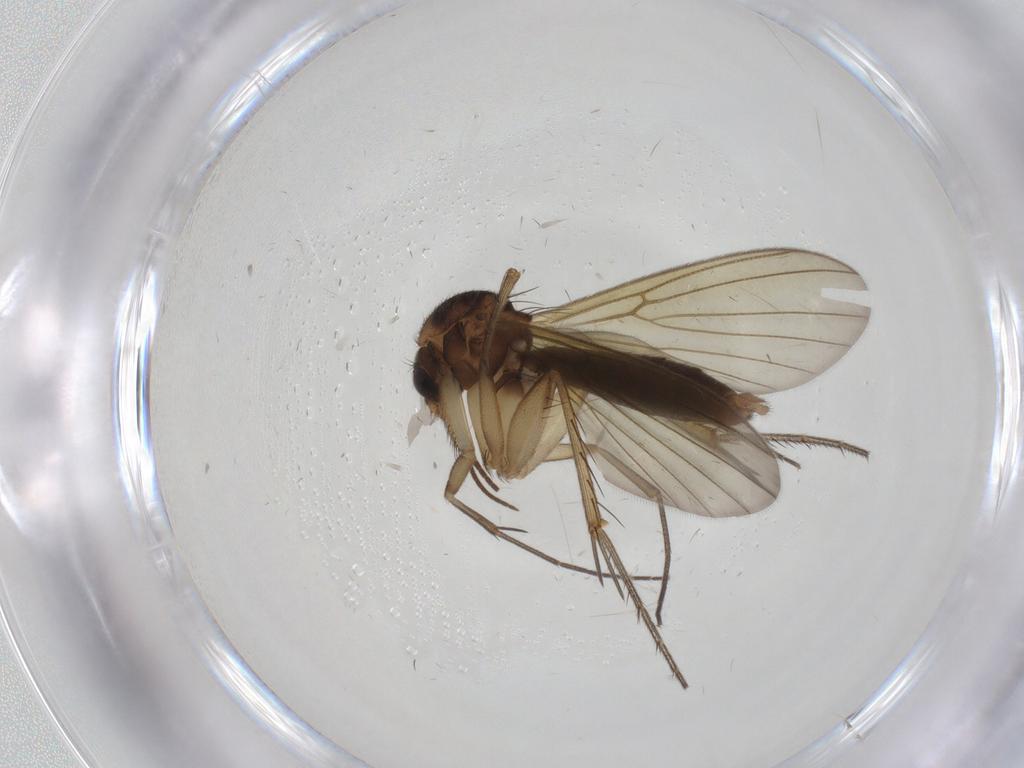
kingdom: Animalia
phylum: Arthropoda
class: Insecta
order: Diptera
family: Mycetophilidae
